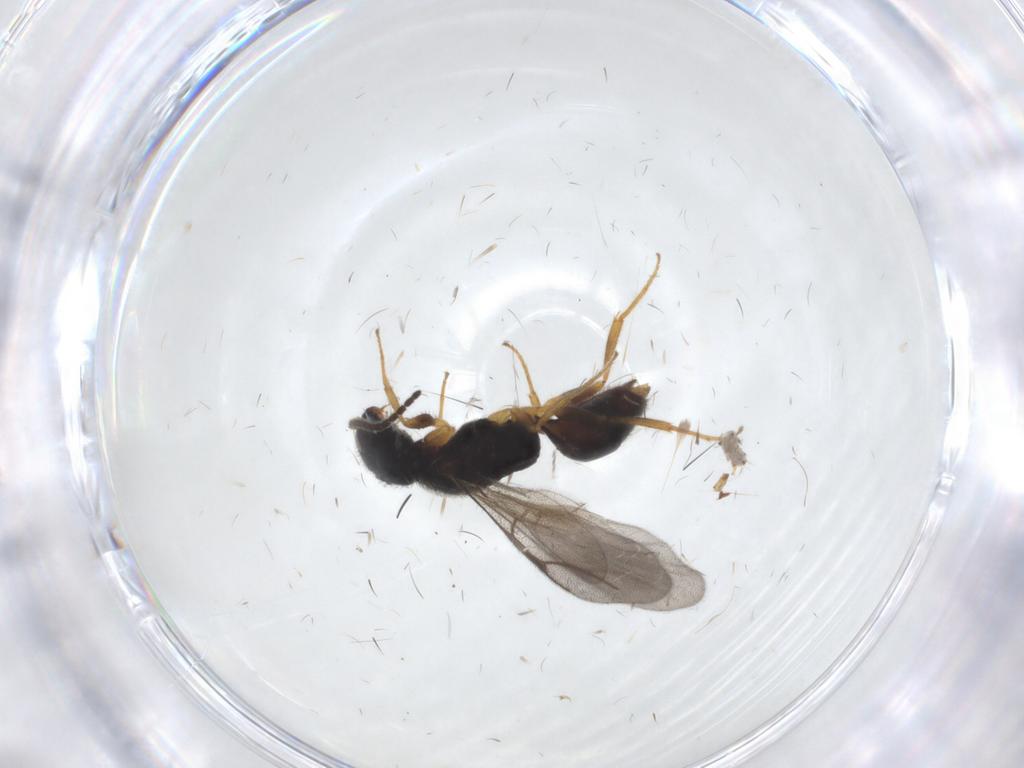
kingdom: Animalia
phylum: Arthropoda
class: Insecta
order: Hymenoptera
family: Bethylidae
